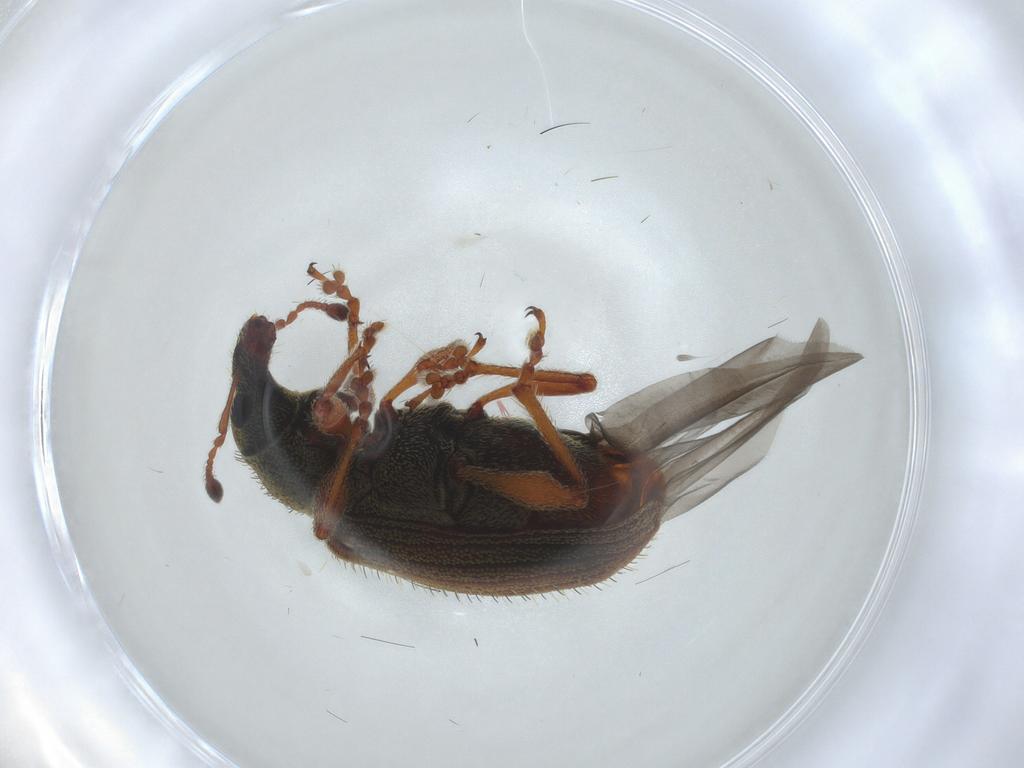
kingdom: Animalia
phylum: Arthropoda
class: Insecta
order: Coleoptera
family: Curculionidae
